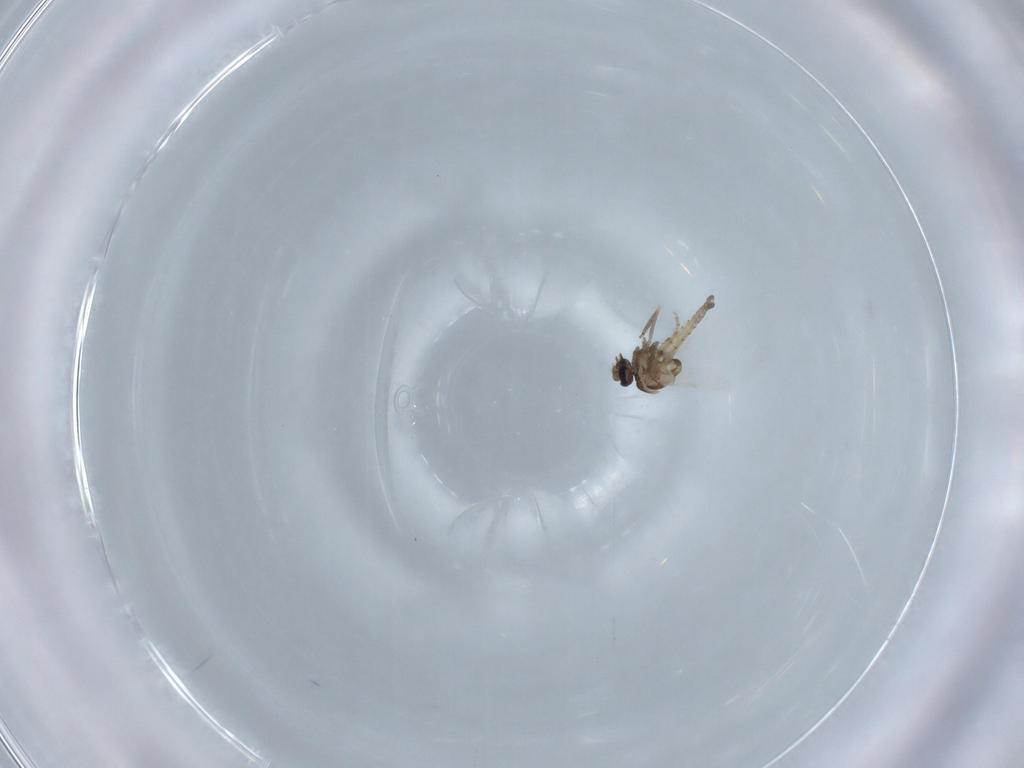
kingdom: Animalia
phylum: Arthropoda
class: Insecta
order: Diptera
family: Ceratopogonidae
